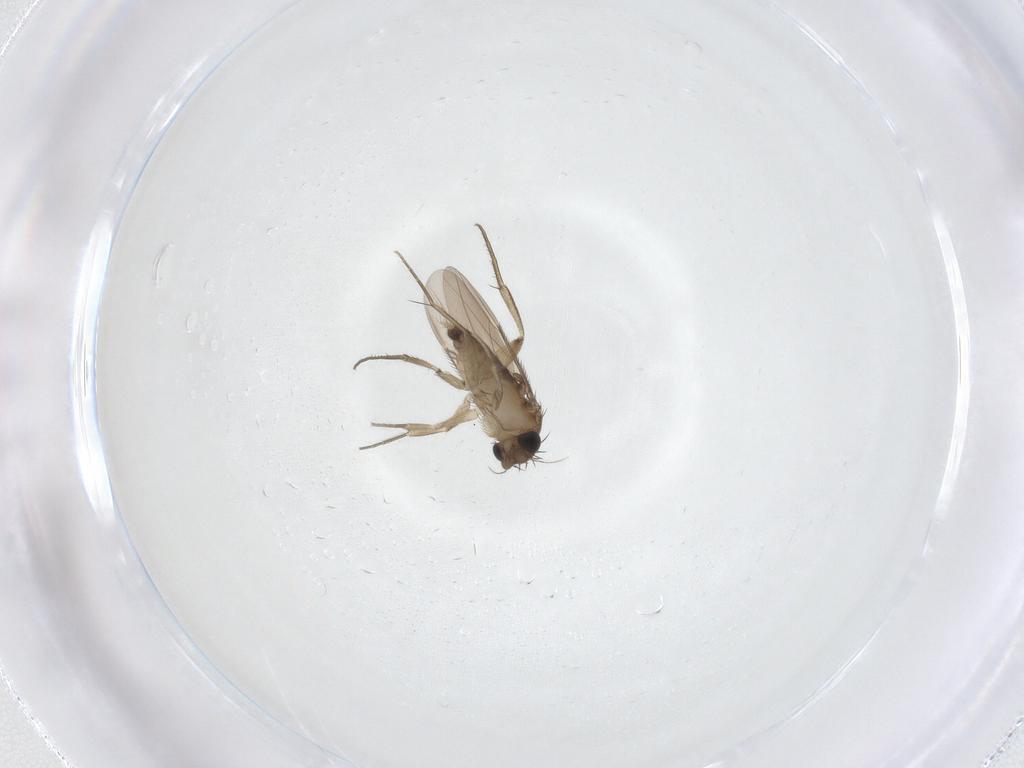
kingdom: Animalia
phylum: Arthropoda
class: Insecta
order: Diptera
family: Phoridae
